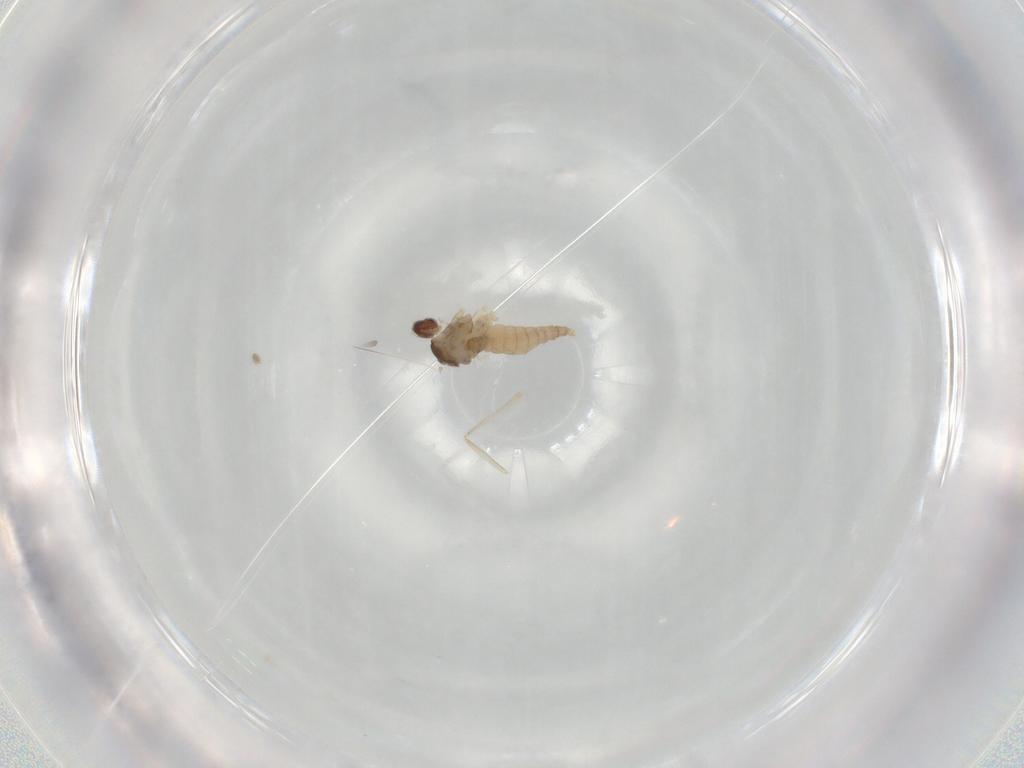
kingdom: Animalia
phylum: Arthropoda
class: Insecta
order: Diptera
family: Cecidomyiidae
